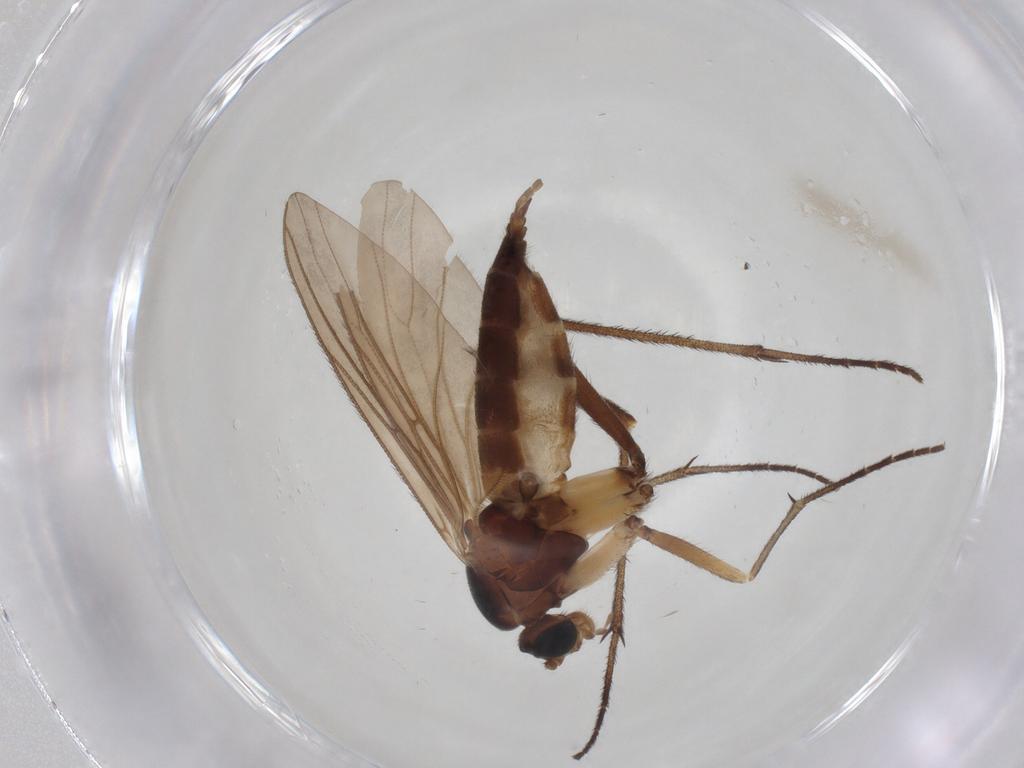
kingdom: Animalia
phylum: Arthropoda
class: Insecta
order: Diptera
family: Sciaridae
